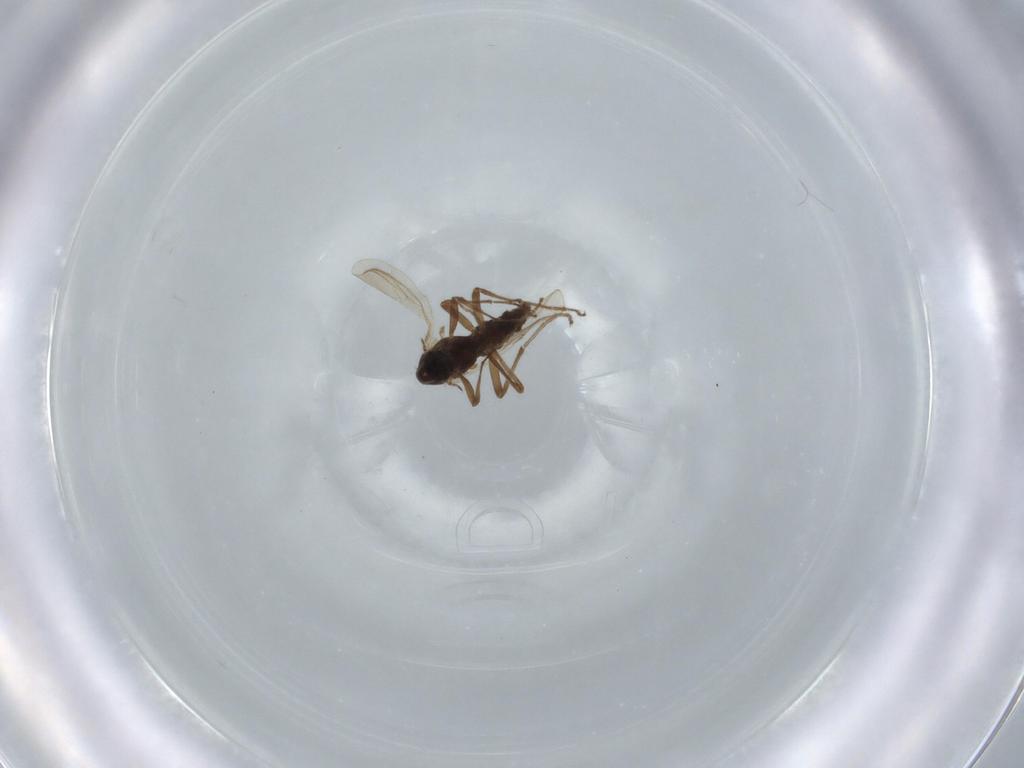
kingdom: Animalia
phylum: Arthropoda
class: Insecta
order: Diptera
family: Chironomidae
